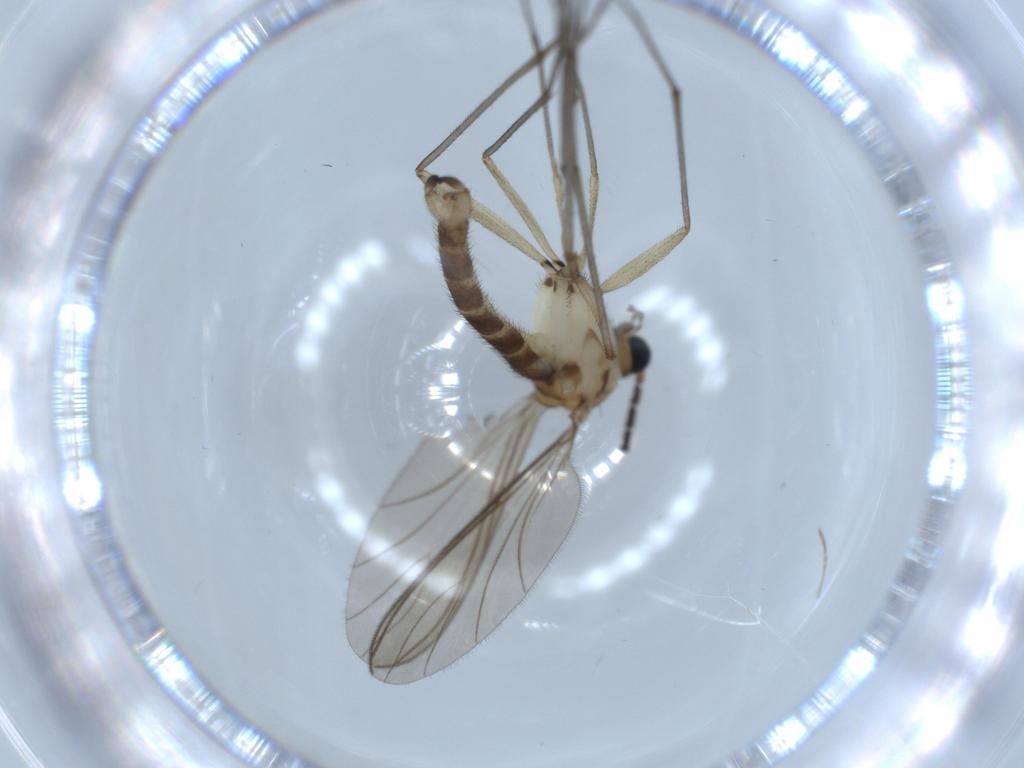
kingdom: Animalia
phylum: Arthropoda
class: Insecta
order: Diptera
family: Sciaridae
